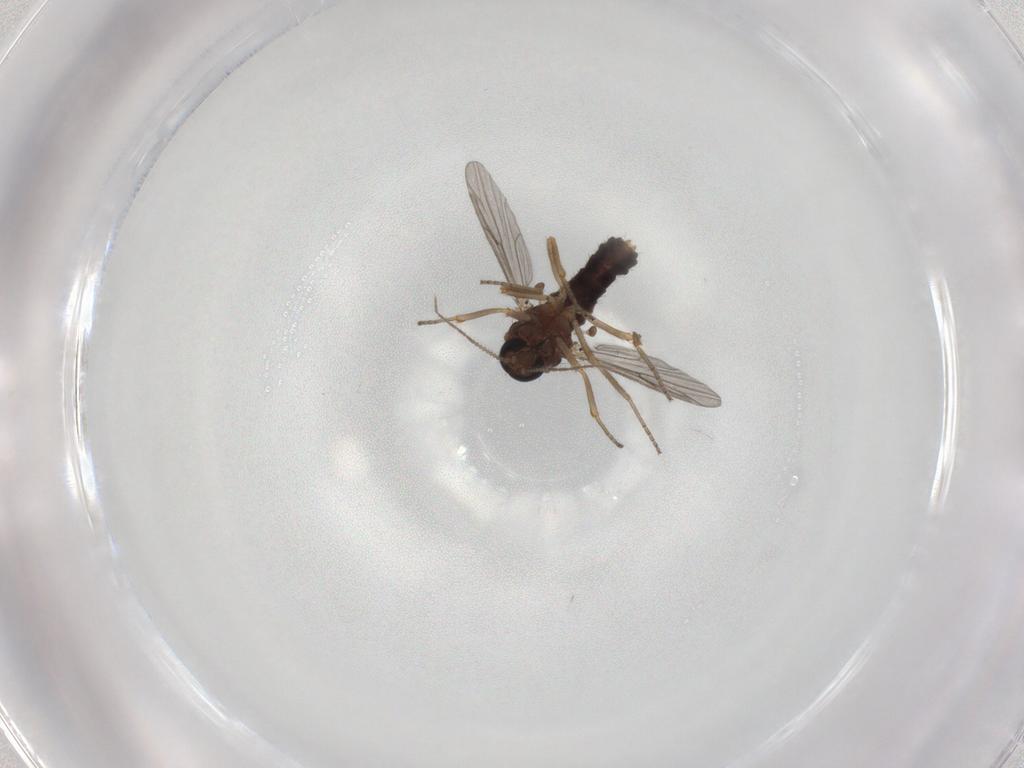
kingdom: Animalia
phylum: Arthropoda
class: Insecta
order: Diptera
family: Ceratopogonidae
